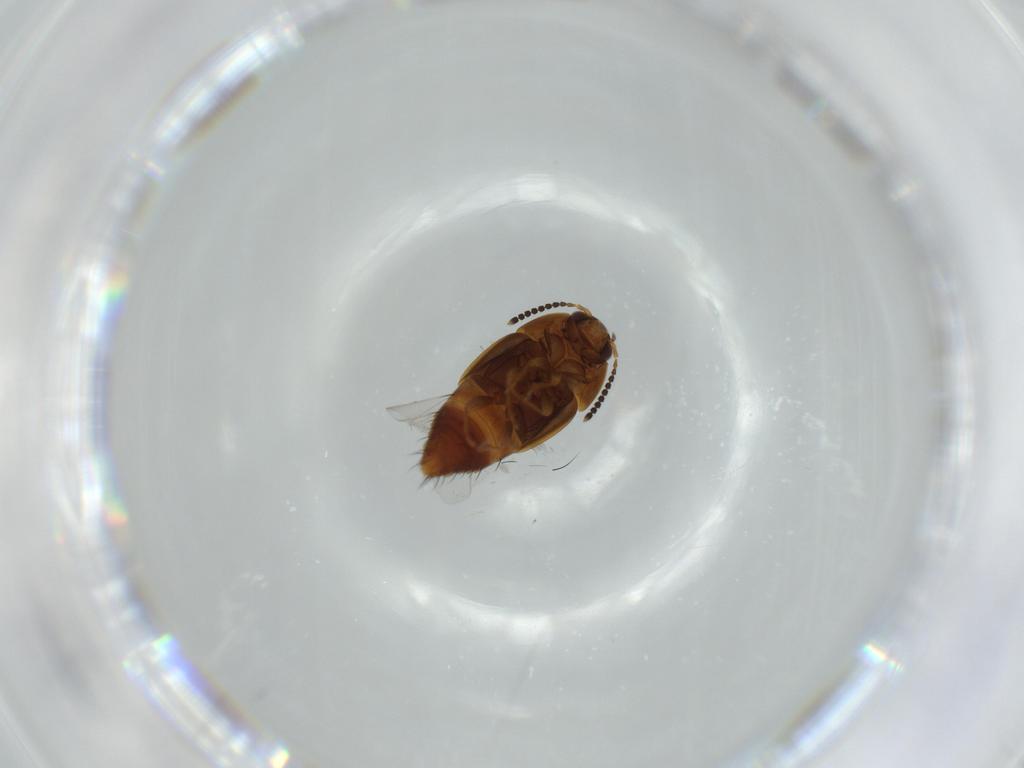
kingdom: Animalia
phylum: Arthropoda
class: Insecta
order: Coleoptera
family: Staphylinidae
